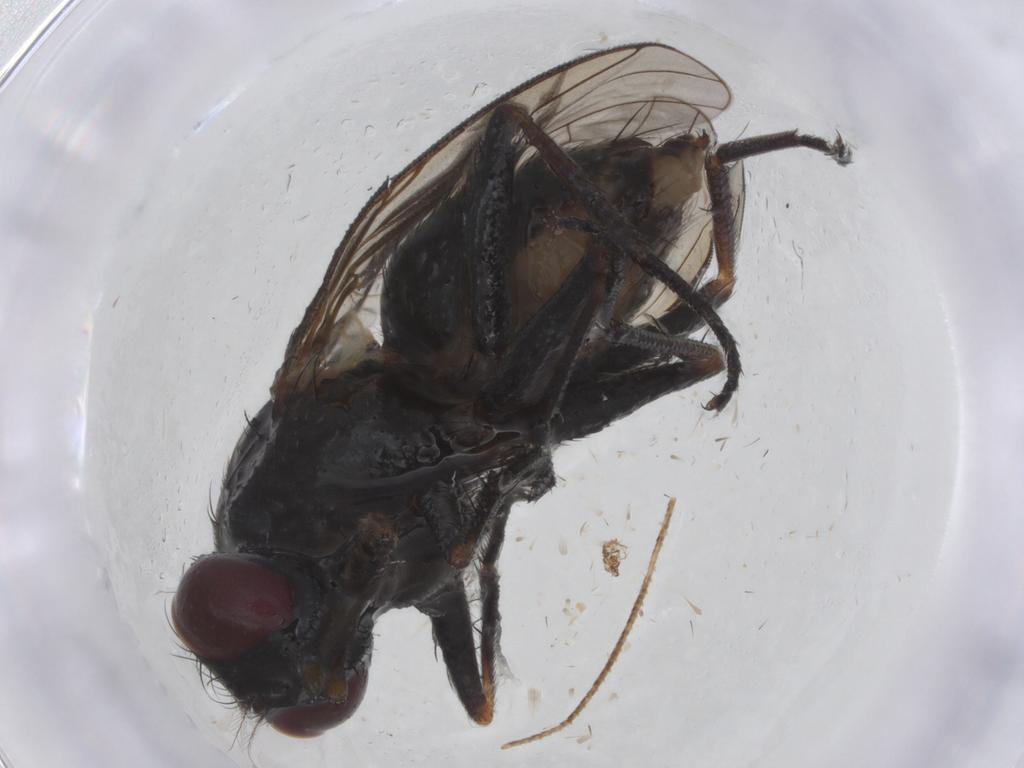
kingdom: Animalia
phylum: Arthropoda
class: Insecta
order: Diptera
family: Muscidae
